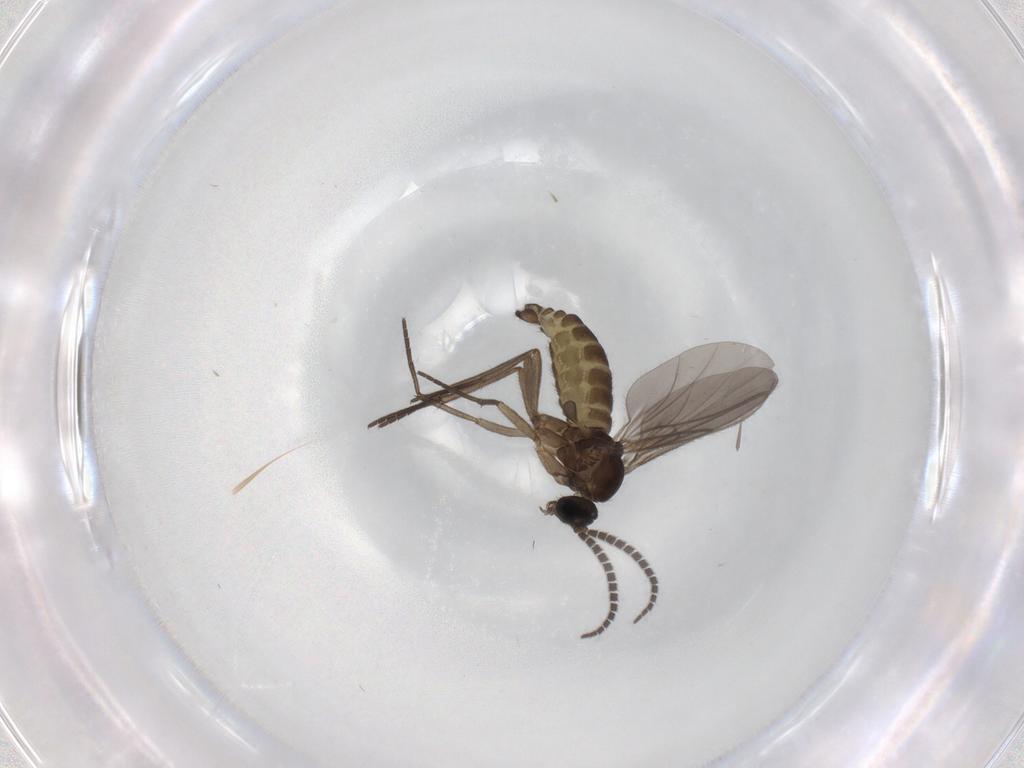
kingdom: Animalia
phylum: Arthropoda
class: Insecta
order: Diptera
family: Sciaridae
